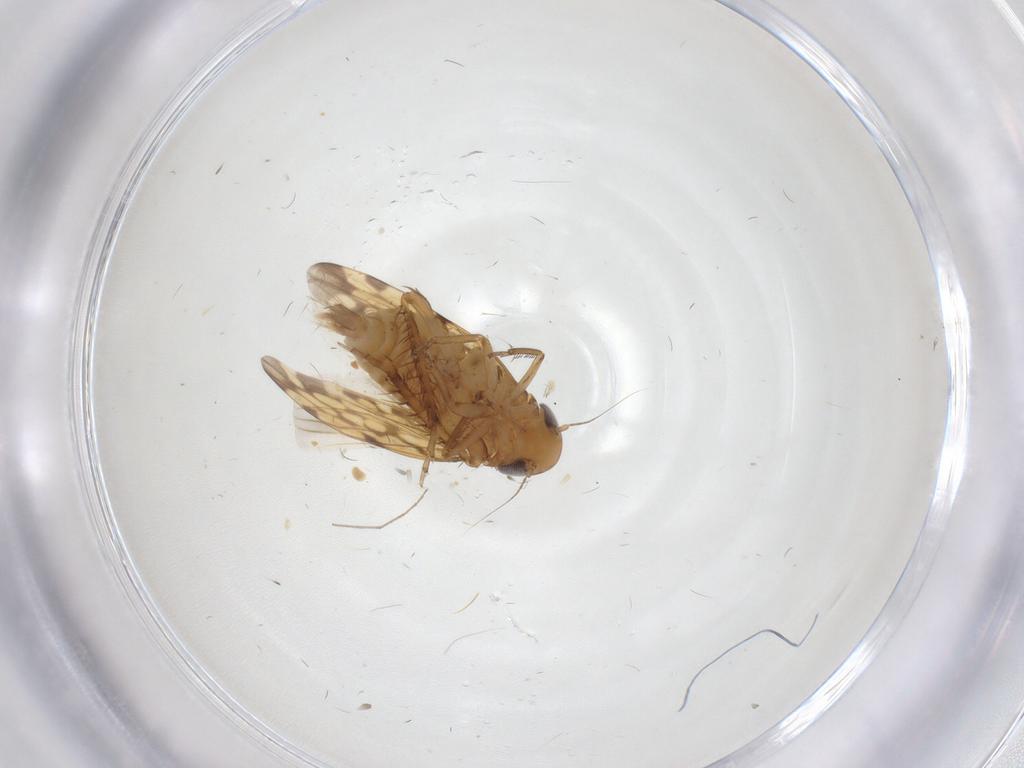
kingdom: Animalia
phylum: Arthropoda
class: Insecta
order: Hemiptera
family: Cicadellidae
